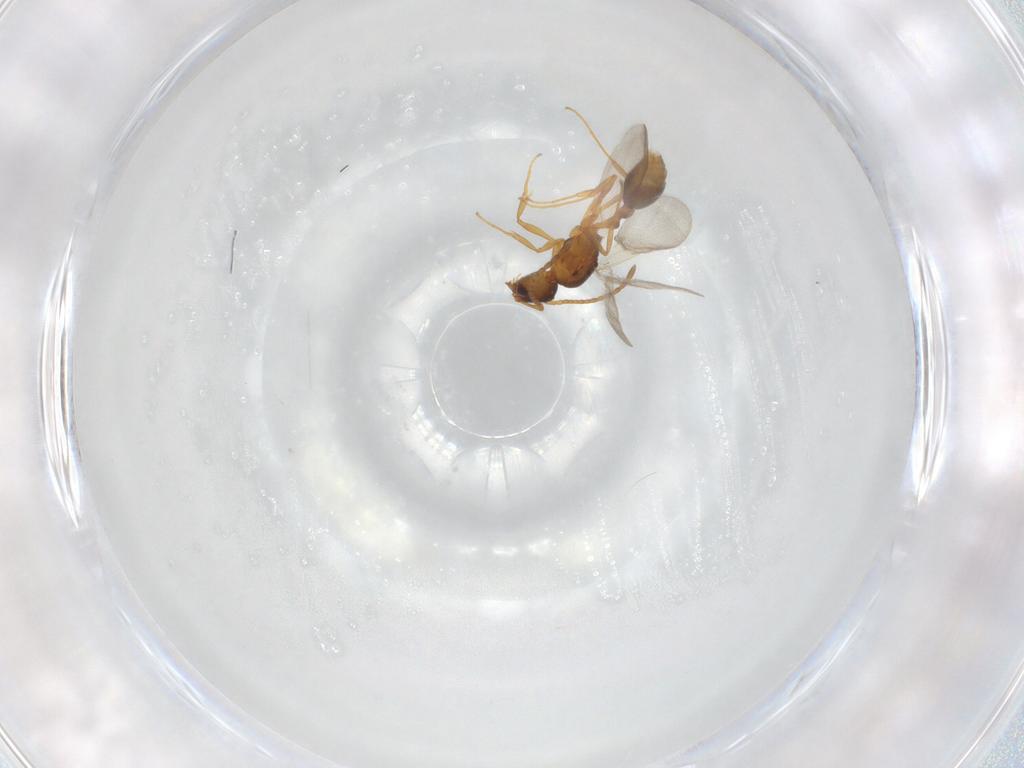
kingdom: Animalia
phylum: Arthropoda
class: Insecta
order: Hymenoptera
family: Formicidae
